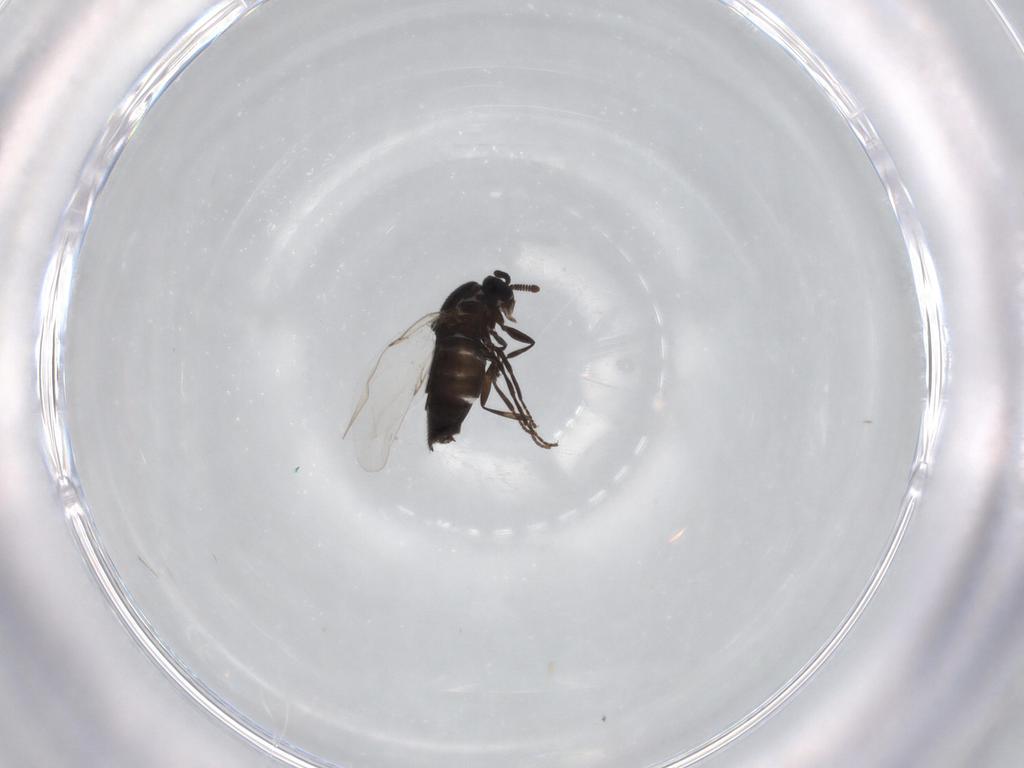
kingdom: Animalia
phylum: Arthropoda
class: Insecta
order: Diptera
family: Scatopsidae
